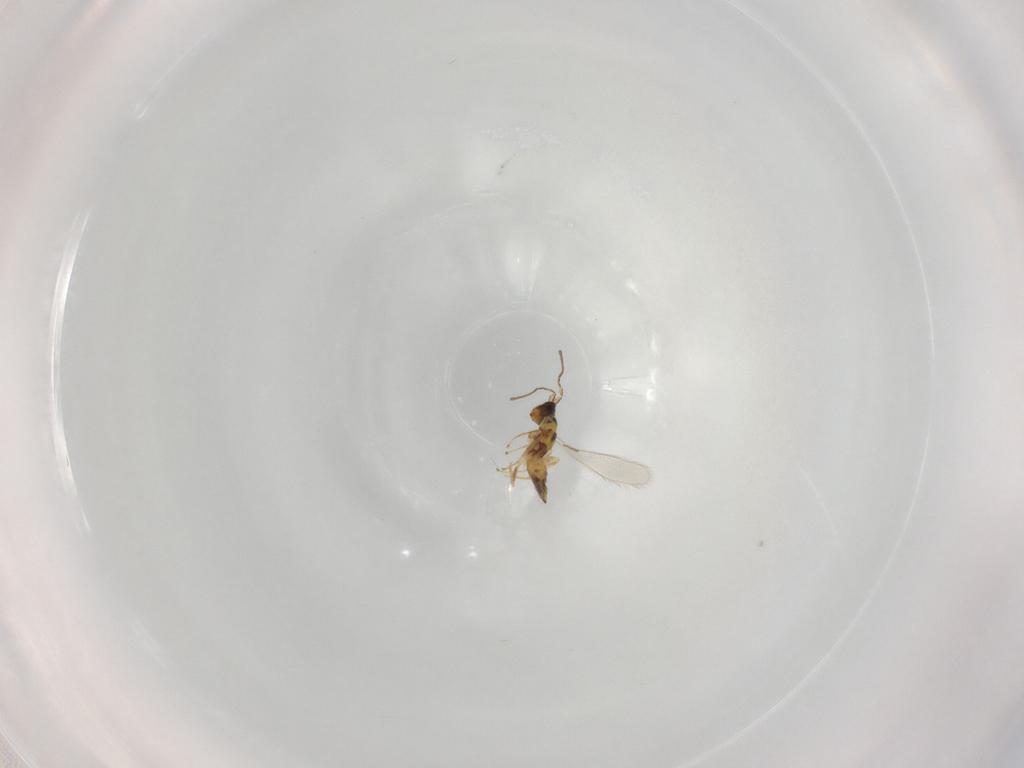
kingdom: Animalia
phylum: Arthropoda
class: Insecta
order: Hymenoptera
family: Mymaridae
